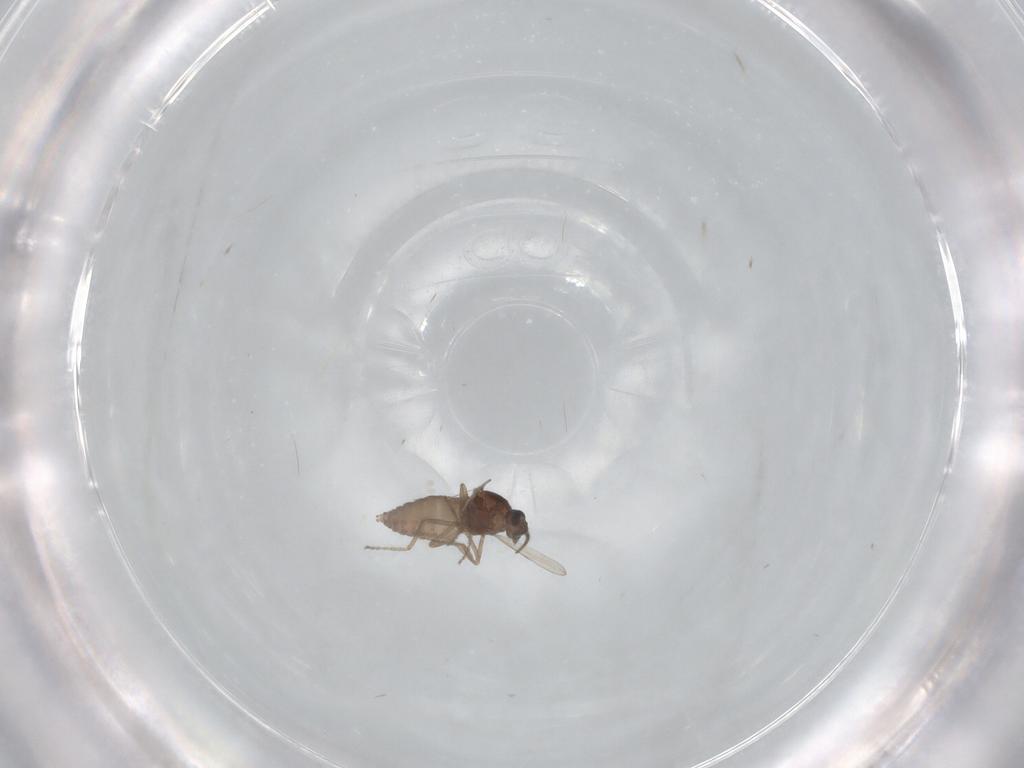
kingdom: Animalia
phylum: Arthropoda
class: Insecta
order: Diptera
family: Ceratopogonidae
